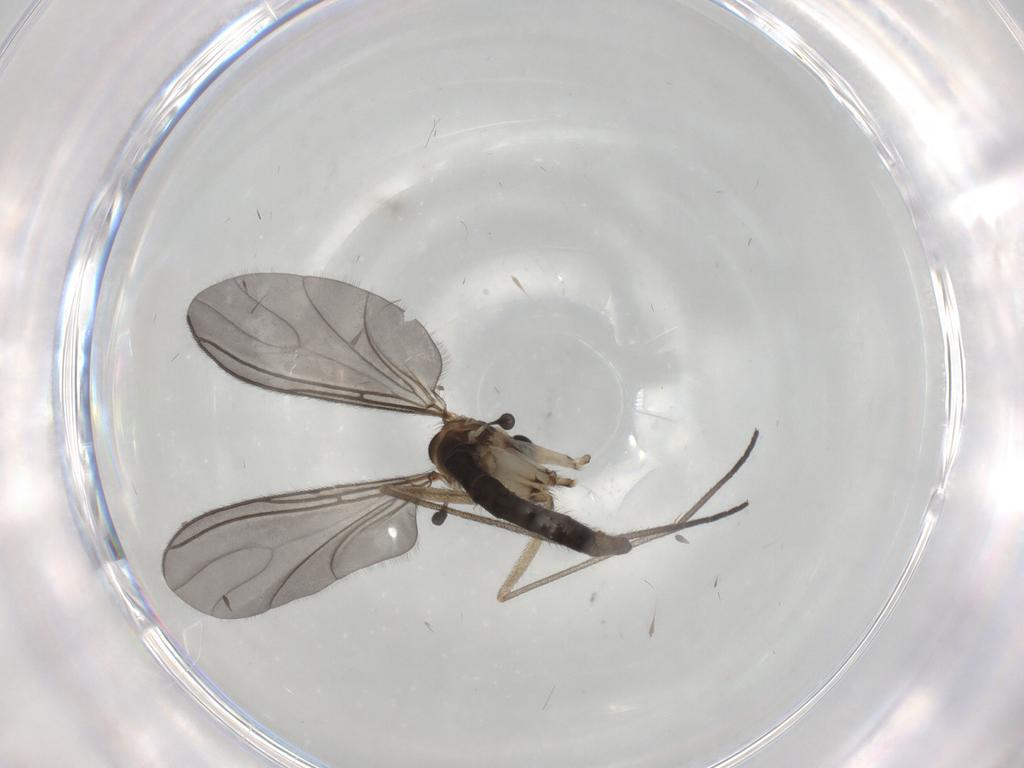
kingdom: Animalia
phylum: Arthropoda
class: Insecta
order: Diptera
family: Sciaridae
